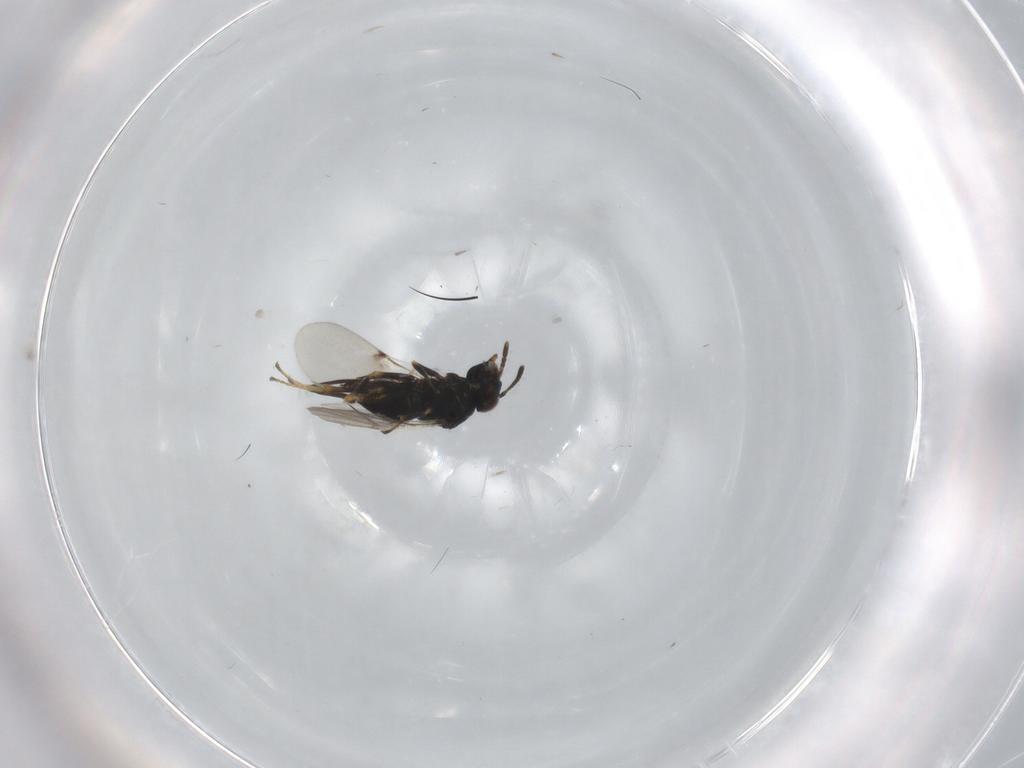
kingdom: Animalia
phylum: Arthropoda
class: Insecta
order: Hymenoptera
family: Encyrtidae
